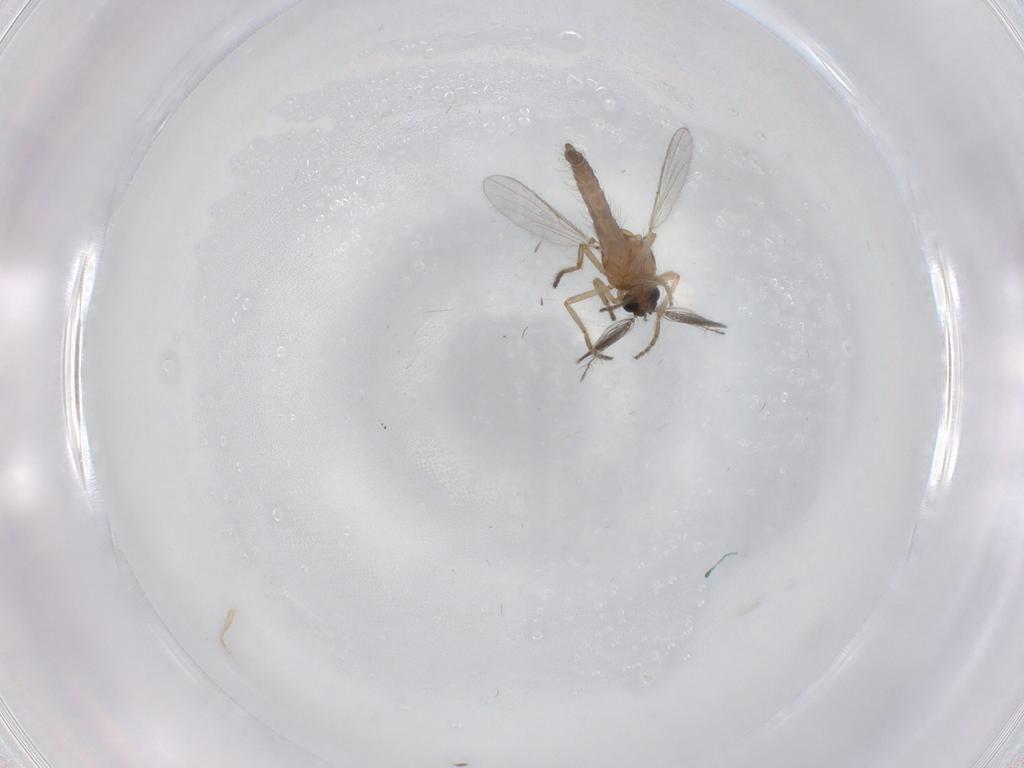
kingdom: Animalia
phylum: Arthropoda
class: Insecta
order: Diptera
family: Ceratopogonidae
